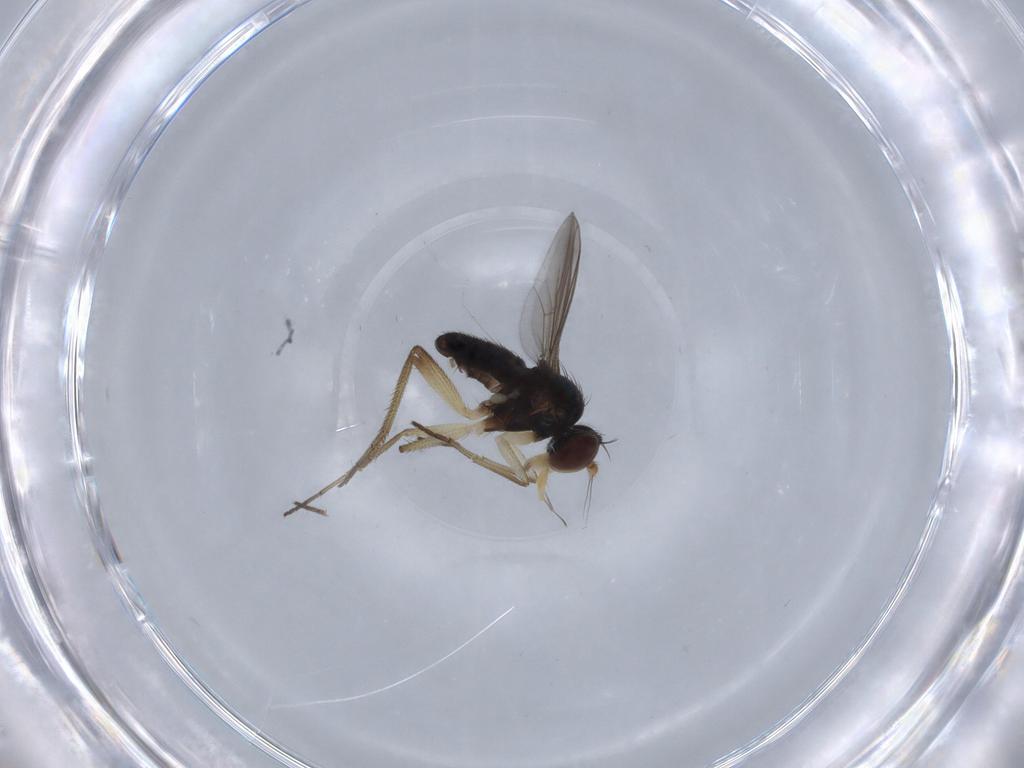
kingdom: Animalia
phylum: Arthropoda
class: Insecta
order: Diptera
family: Dolichopodidae
